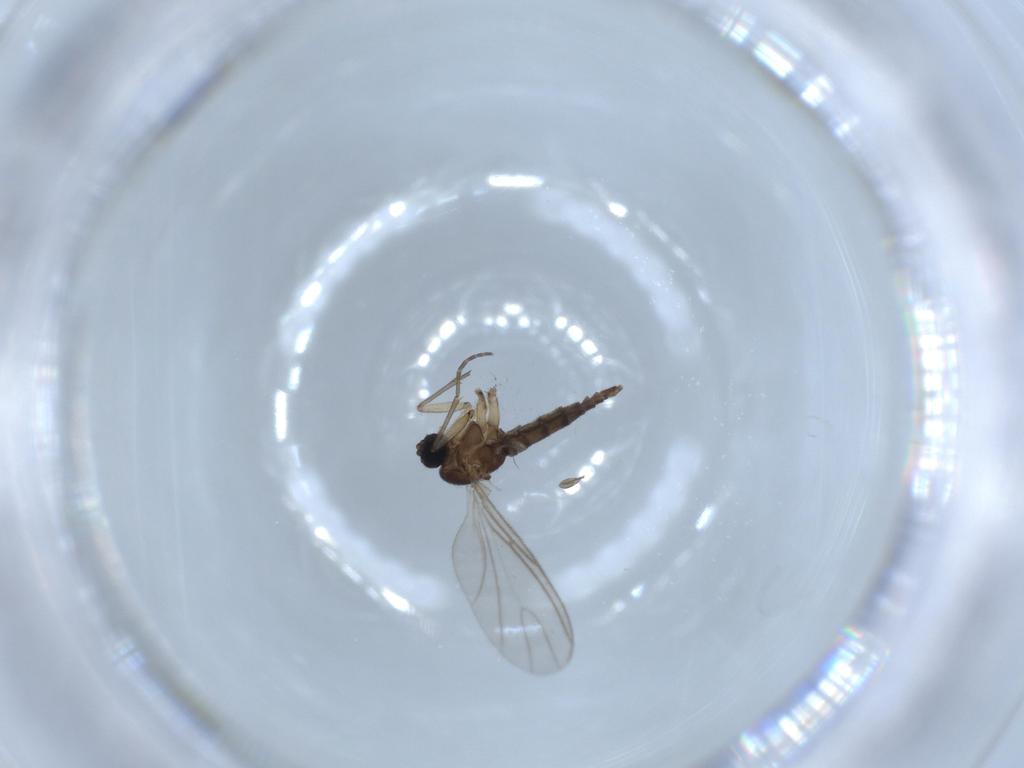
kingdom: Animalia
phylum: Arthropoda
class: Insecta
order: Diptera
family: Sciaridae
